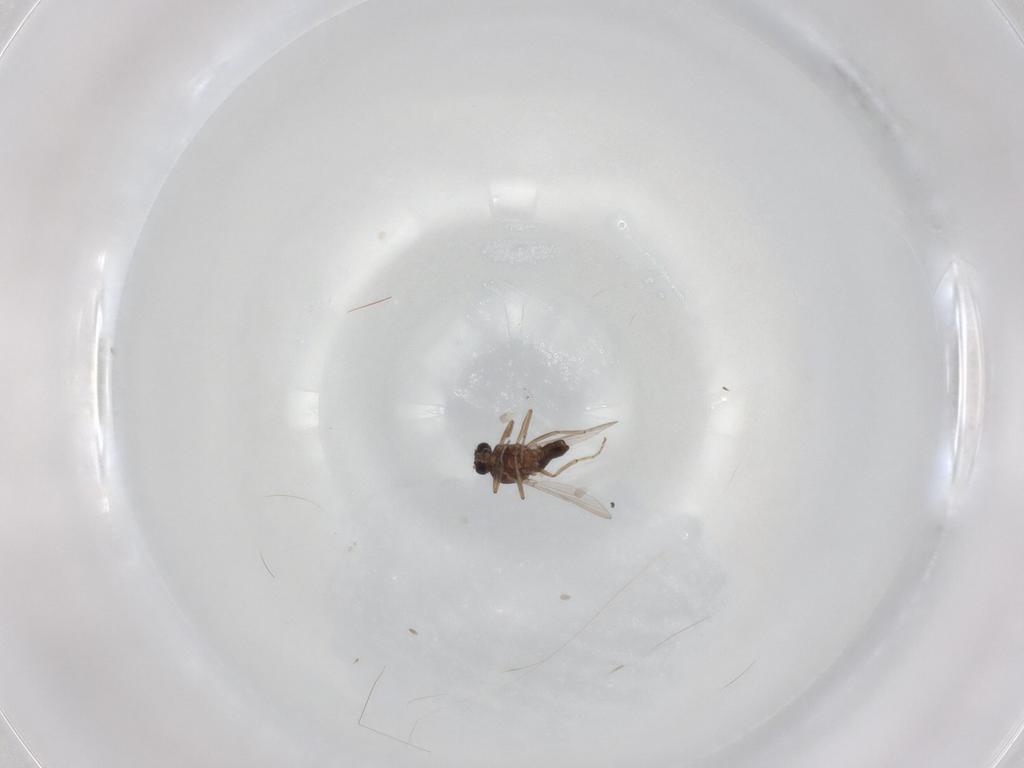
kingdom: Animalia
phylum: Arthropoda
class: Insecta
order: Diptera
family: Ceratopogonidae
